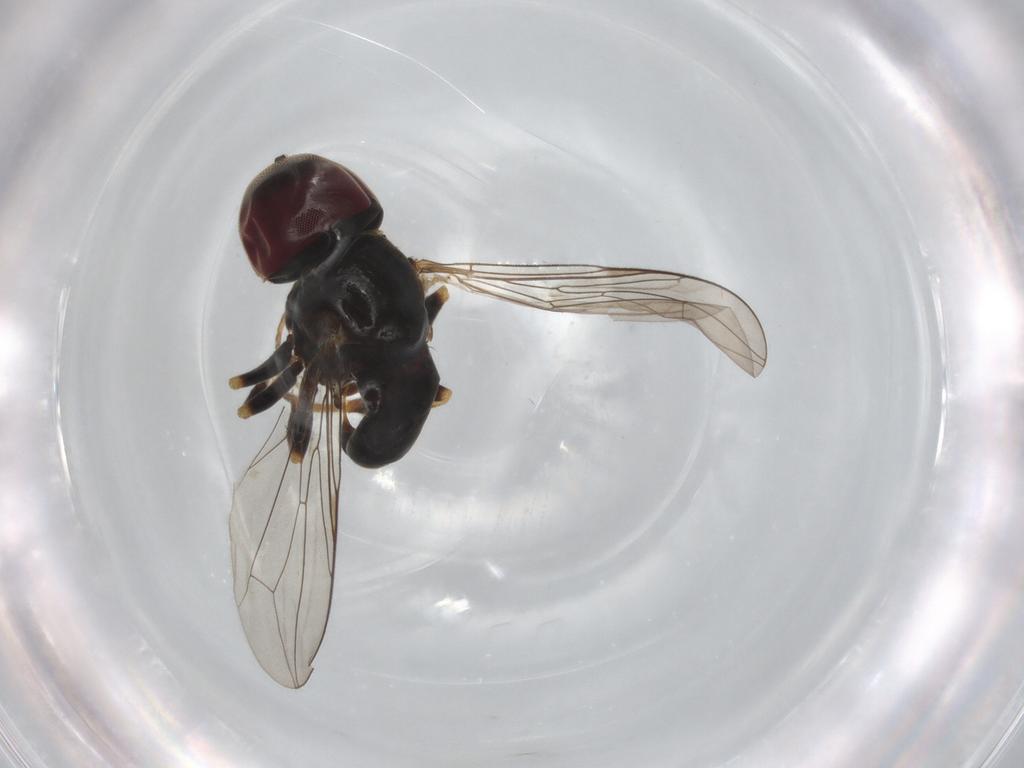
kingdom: Animalia
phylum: Arthropoda
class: Insecta
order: Diptera
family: Pipunculidae
